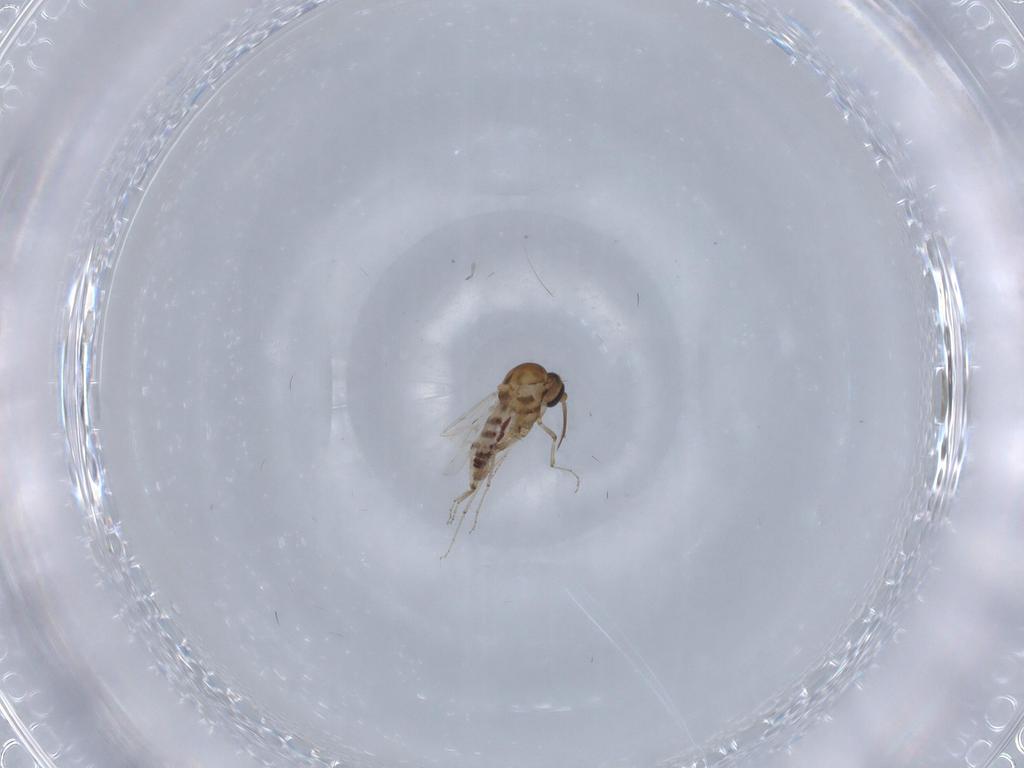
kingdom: Animalia
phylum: Arthropoda
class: Insecta
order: Diptera
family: Ceratopogonidae
